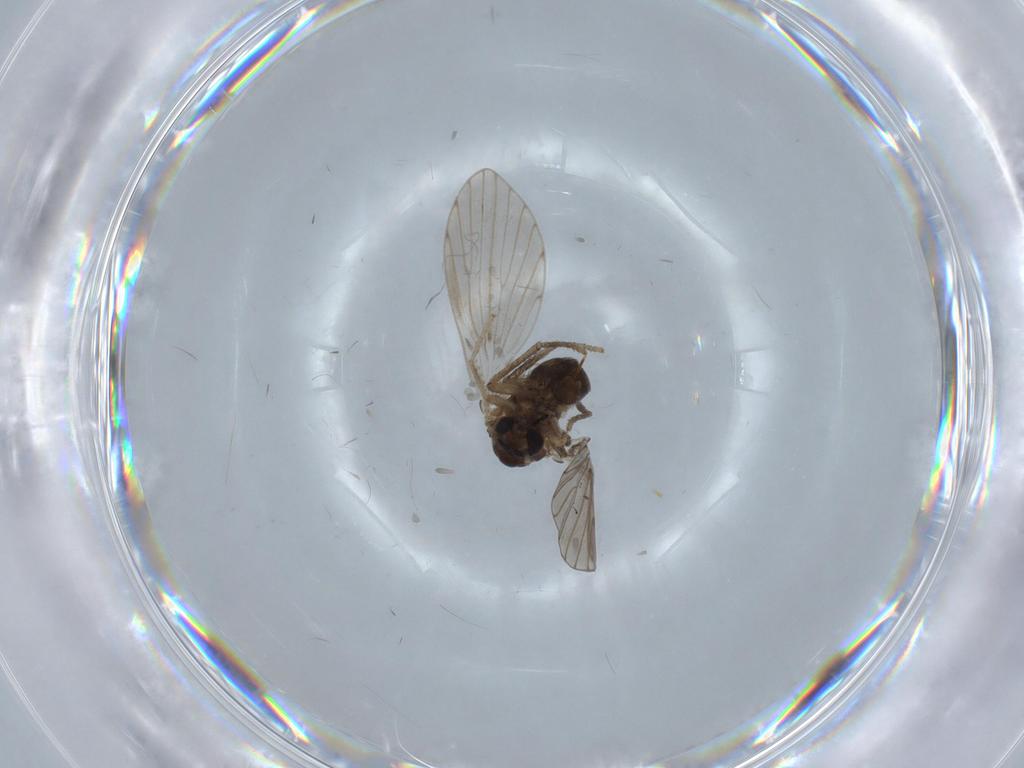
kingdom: Animalia
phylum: Arthropoda
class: Insecta
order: Diptera
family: Psychodidae
